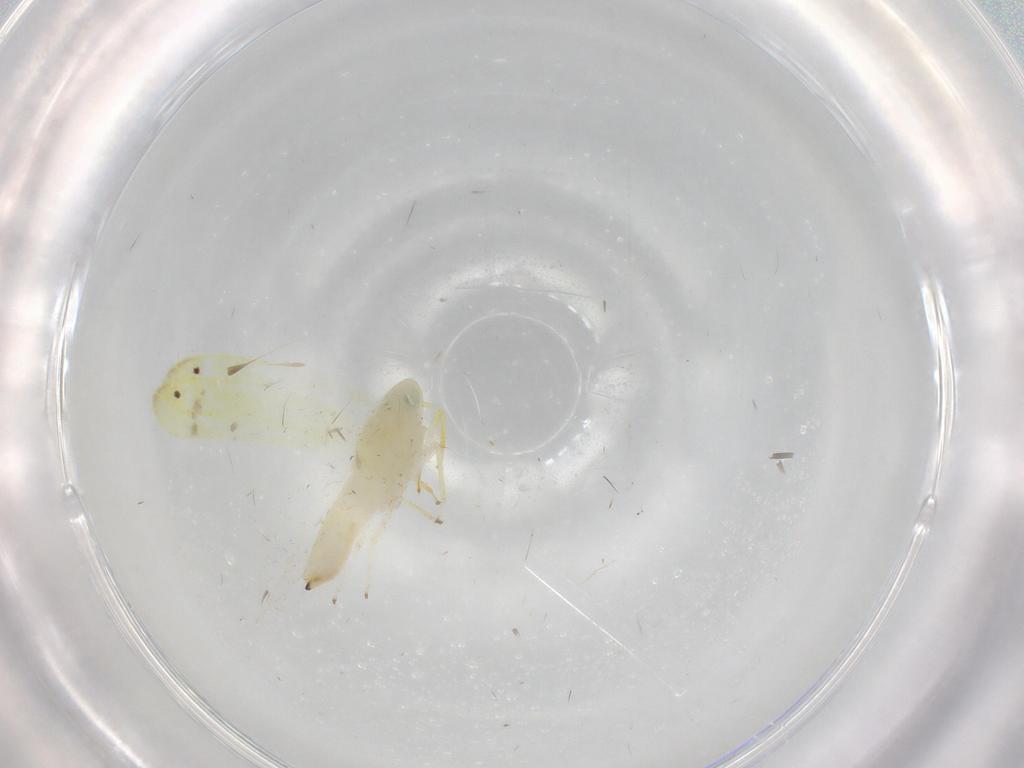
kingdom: Animalia
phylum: Arthropoda
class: Insecta
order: Hemiptera
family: Cicadellidae
